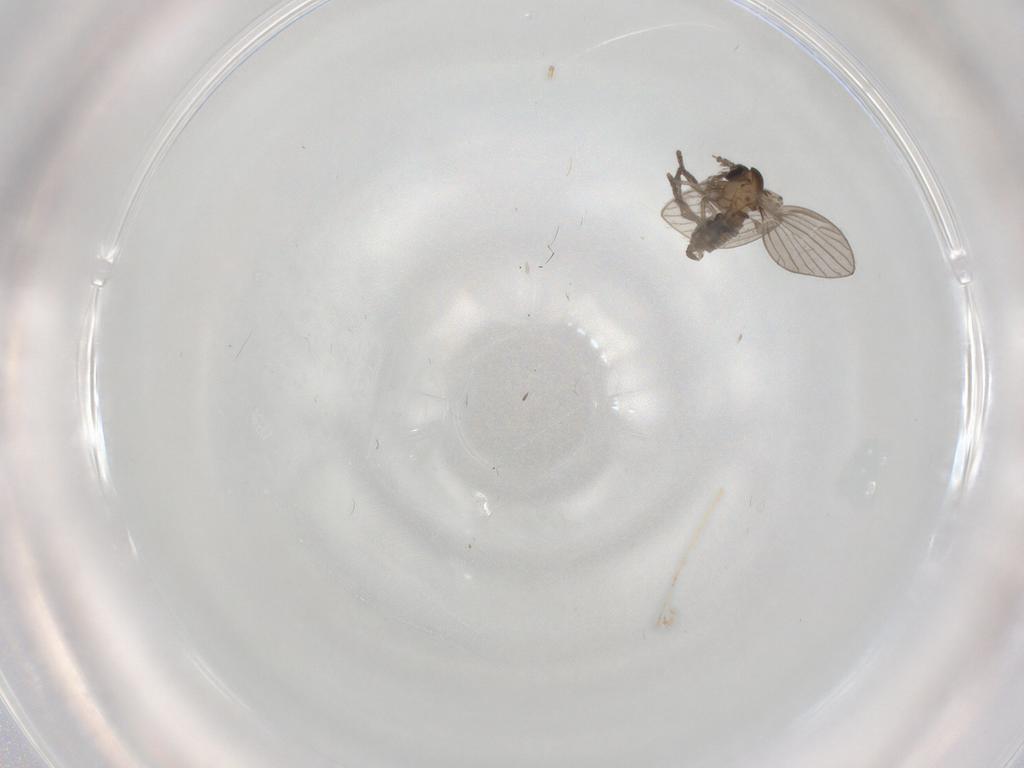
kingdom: Animalia
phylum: Arthropoda
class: Insecta
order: Diptera
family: Psychodidae
